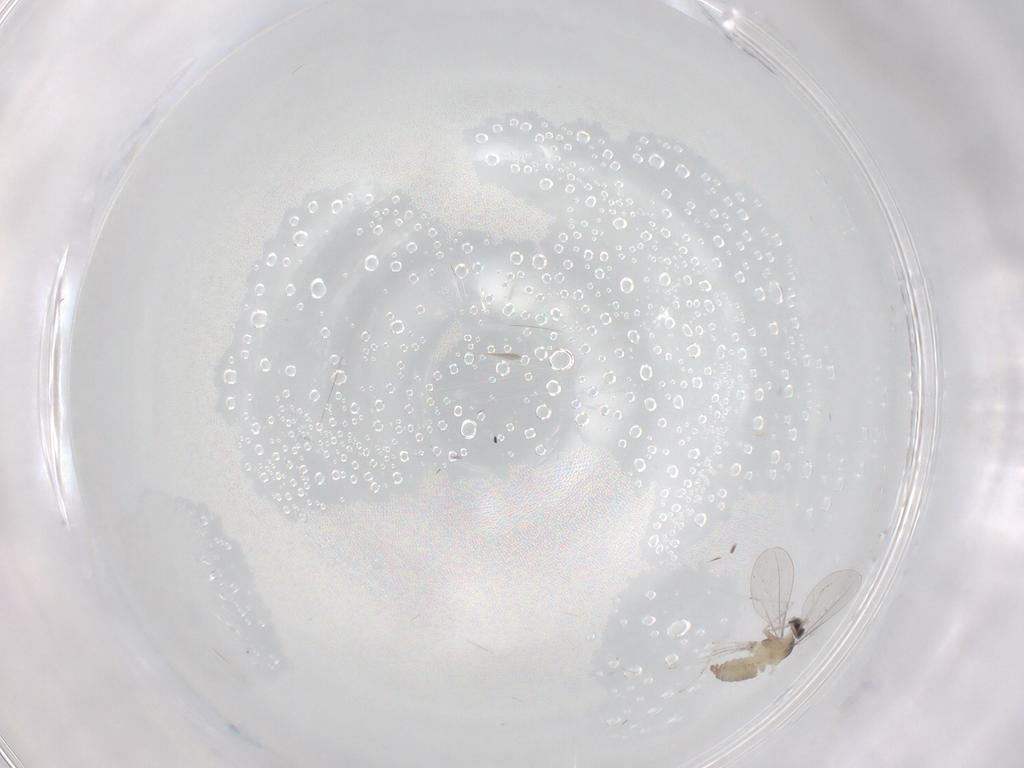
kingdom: Animalia
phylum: Arthropoda
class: Insecta
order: Diptera
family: Cecidomyiidae
